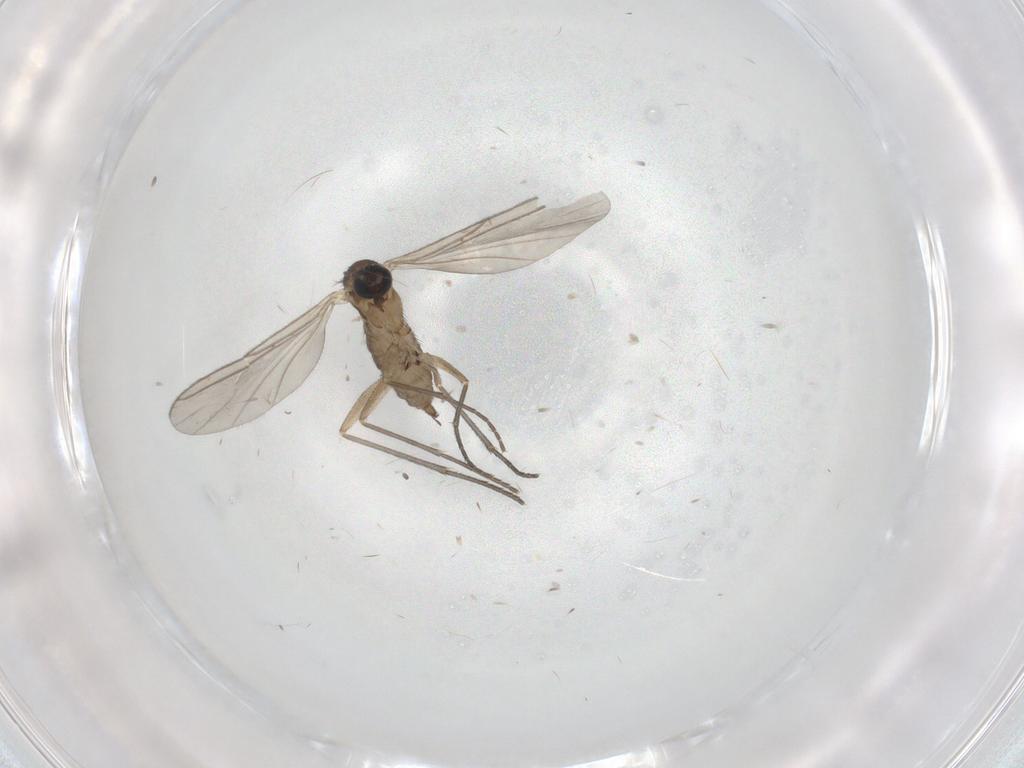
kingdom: Animalia
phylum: Arthropoda
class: Insecta
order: Diptera
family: Sciaridae
